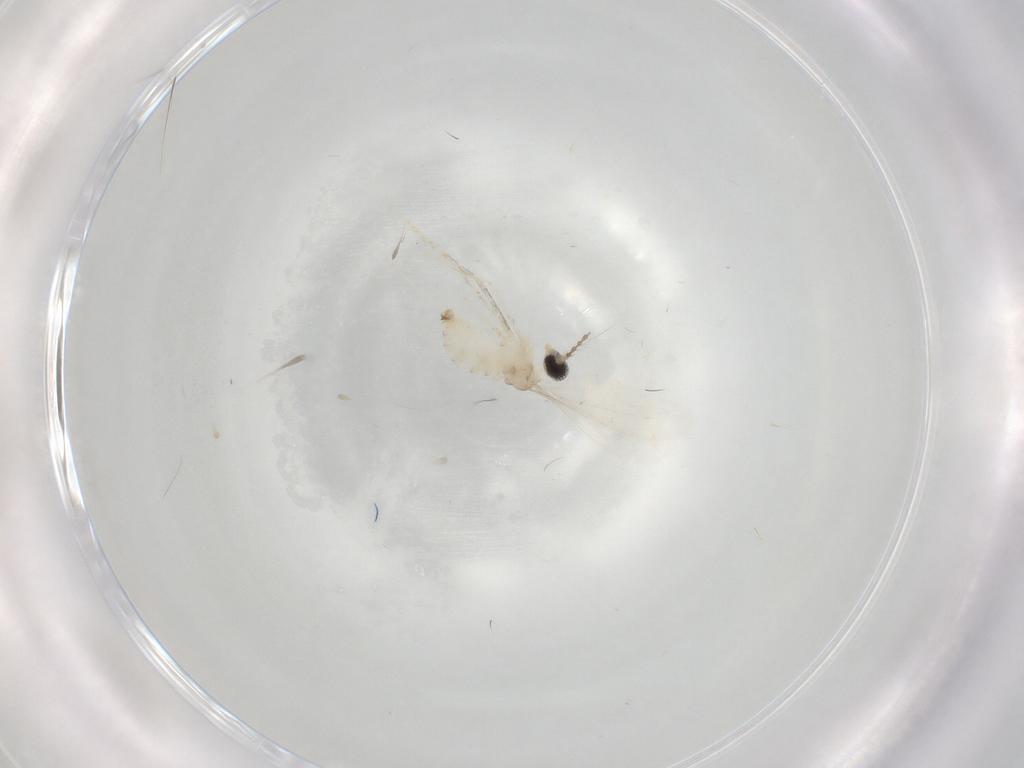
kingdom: Animalia
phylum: Arthropoda
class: Insecta
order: Diptera
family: Cecidomyiidae
